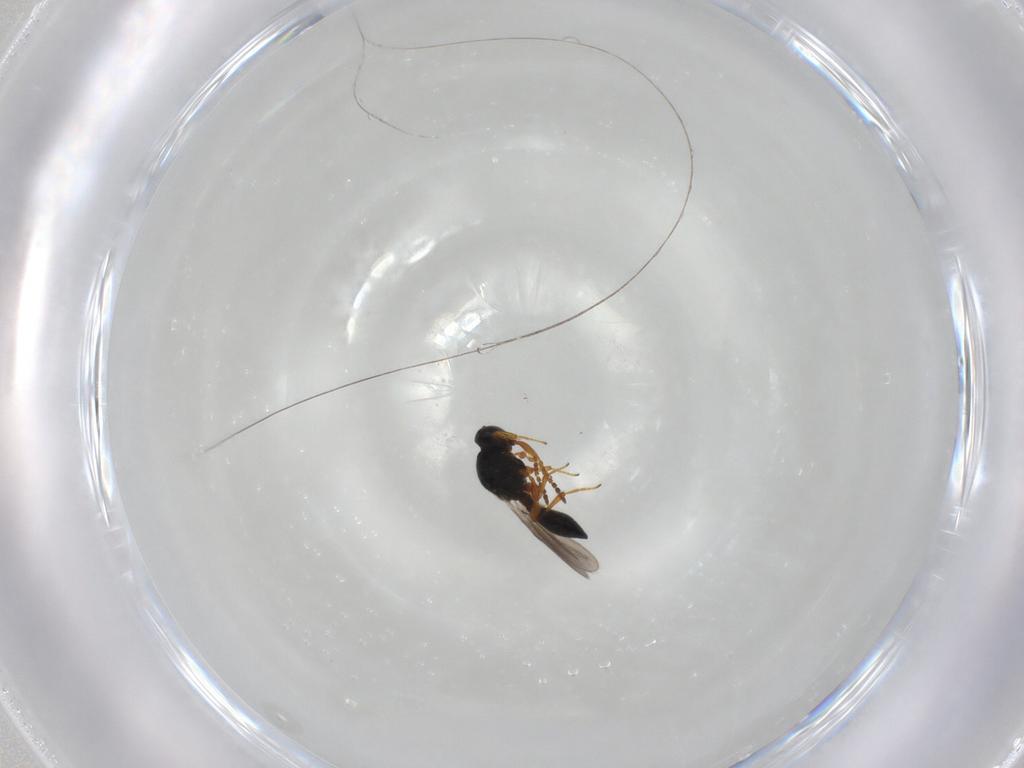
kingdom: Animalia
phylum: Arthropoda
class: Insecta
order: Hymenoptera
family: Platygastridae
